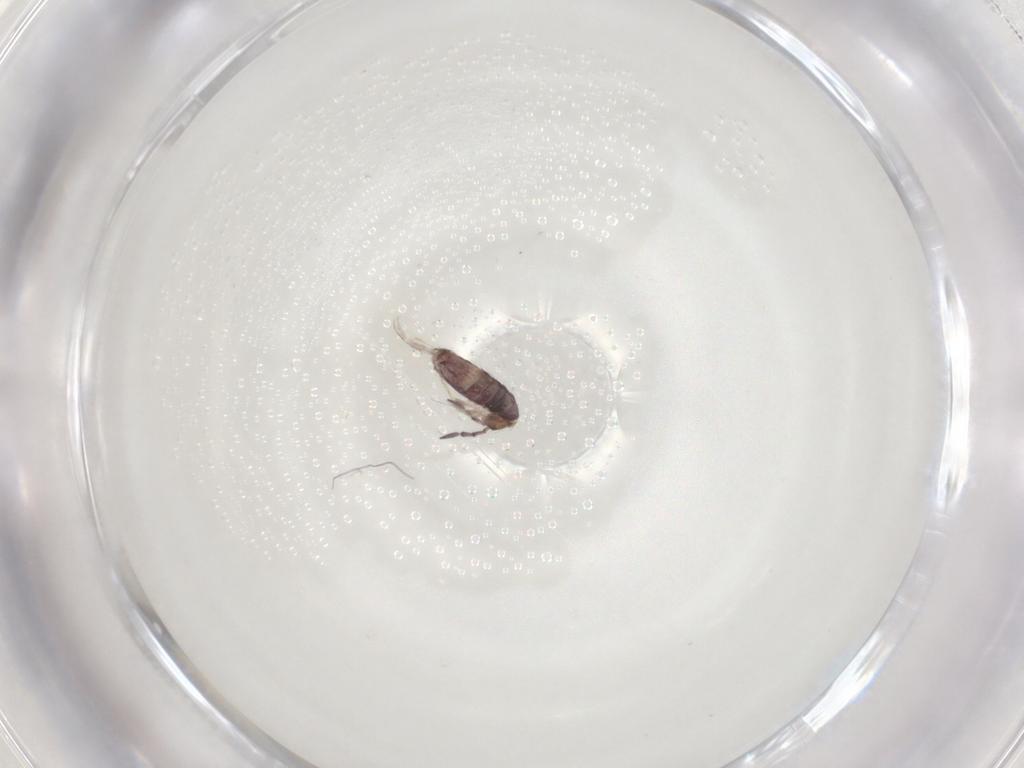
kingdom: Animalia
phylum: Arthropoda
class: Collembola
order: Entomobryomorpha
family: Entomobryidae
